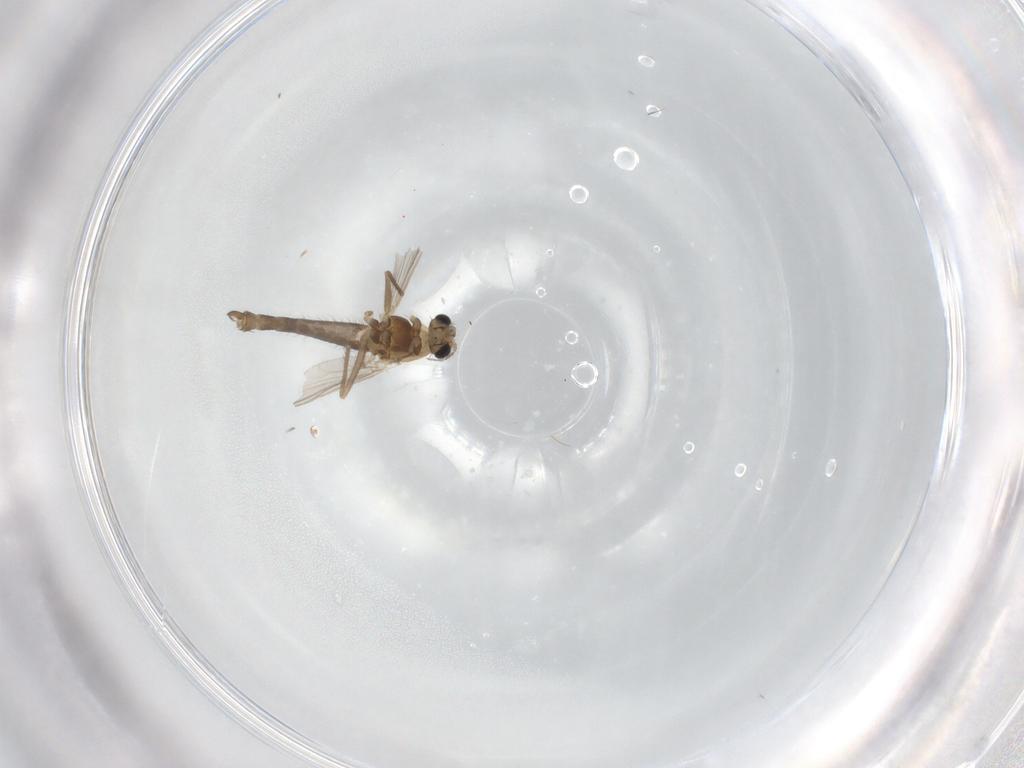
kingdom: Animalia
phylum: Arthropoda
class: Insecta
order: Diptera
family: Chironomidae
